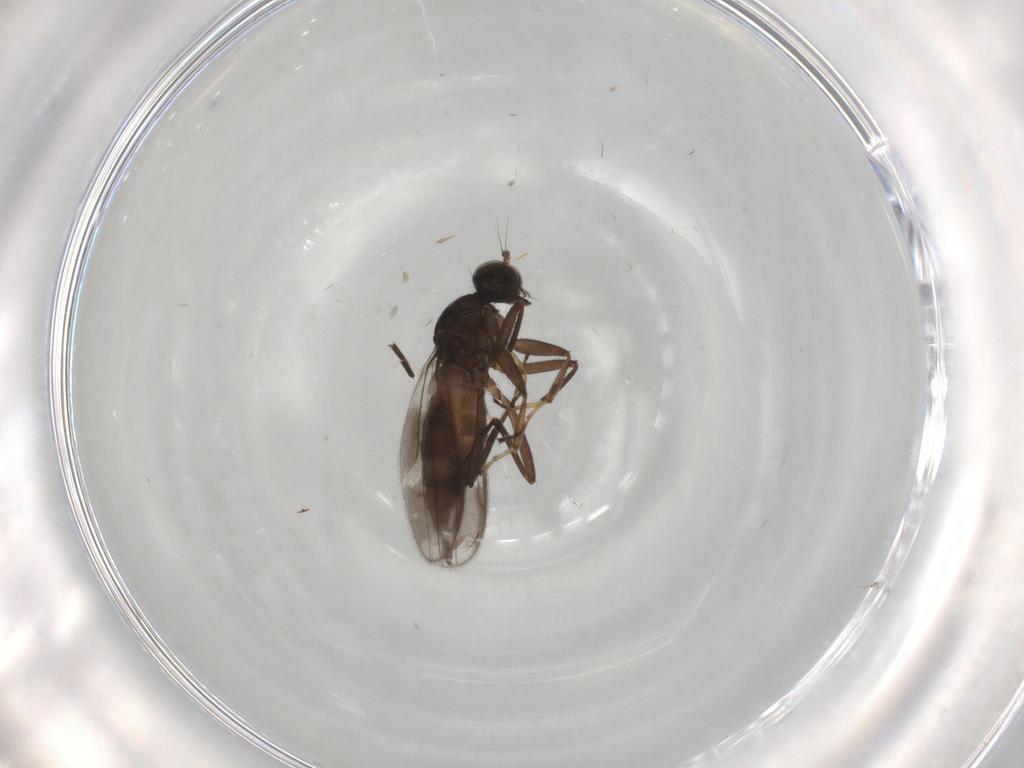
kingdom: Animalia
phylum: Arthropoda
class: Insecta
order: Diptera
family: Hybotidae
